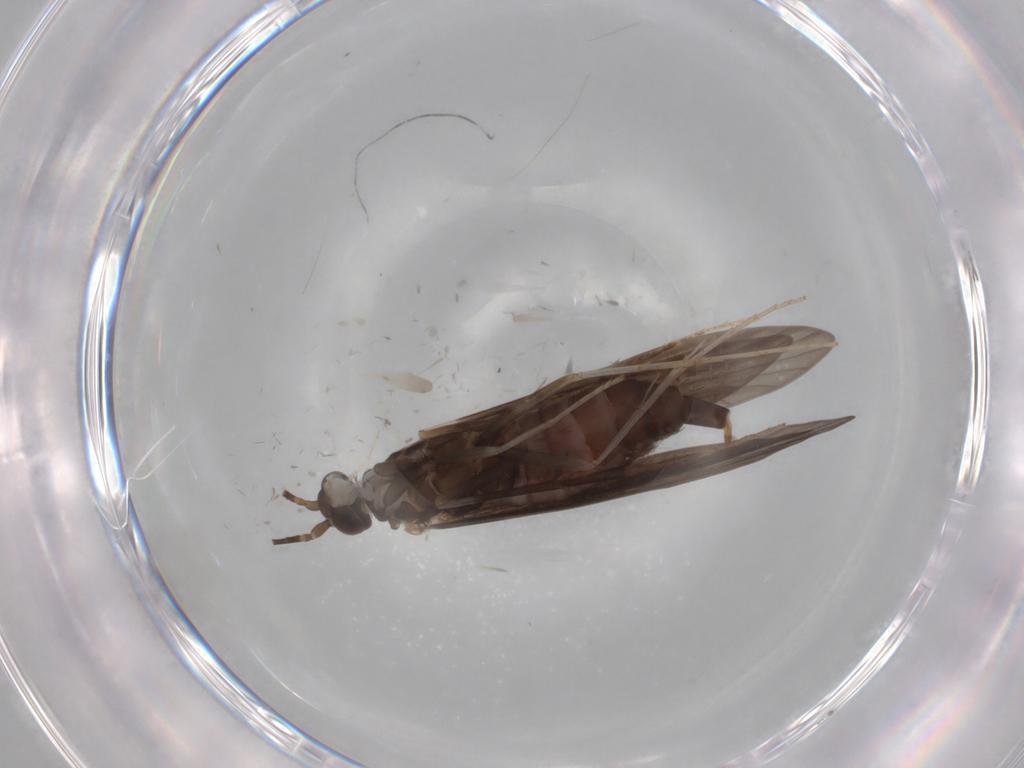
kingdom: Animalia
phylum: Arthropoda
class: Insecta
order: Trichoptera
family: Xiphocentronidae
